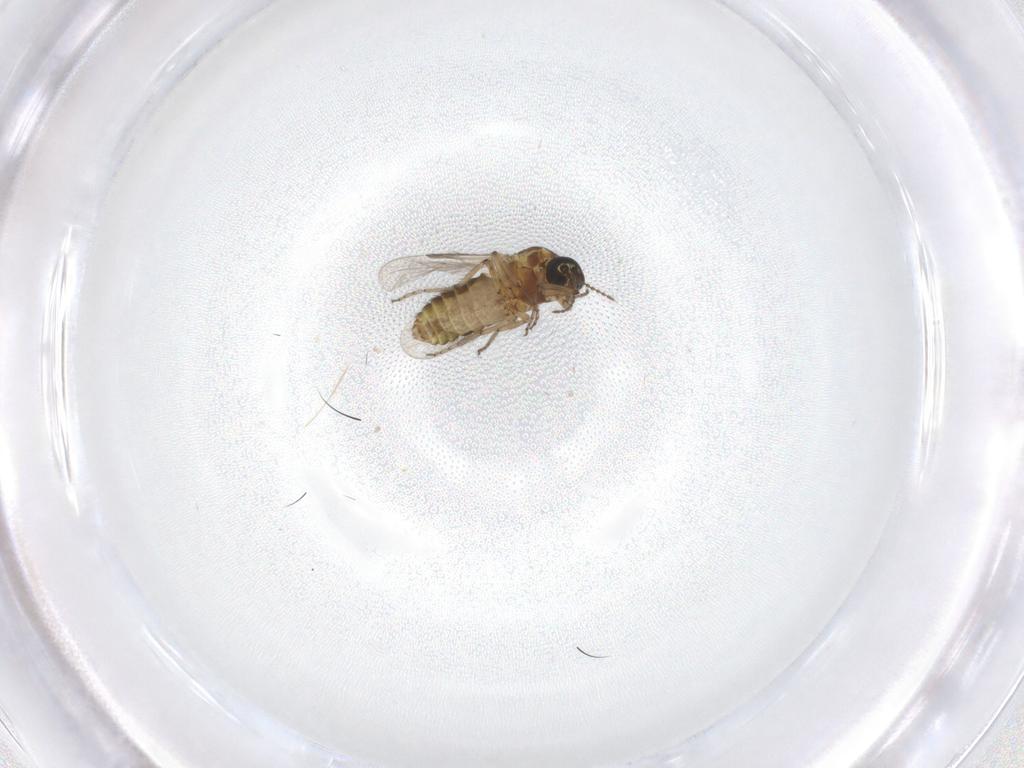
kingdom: Animalia
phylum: Arthropoda
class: Insecta
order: Diptera
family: Ceratopogonidae
